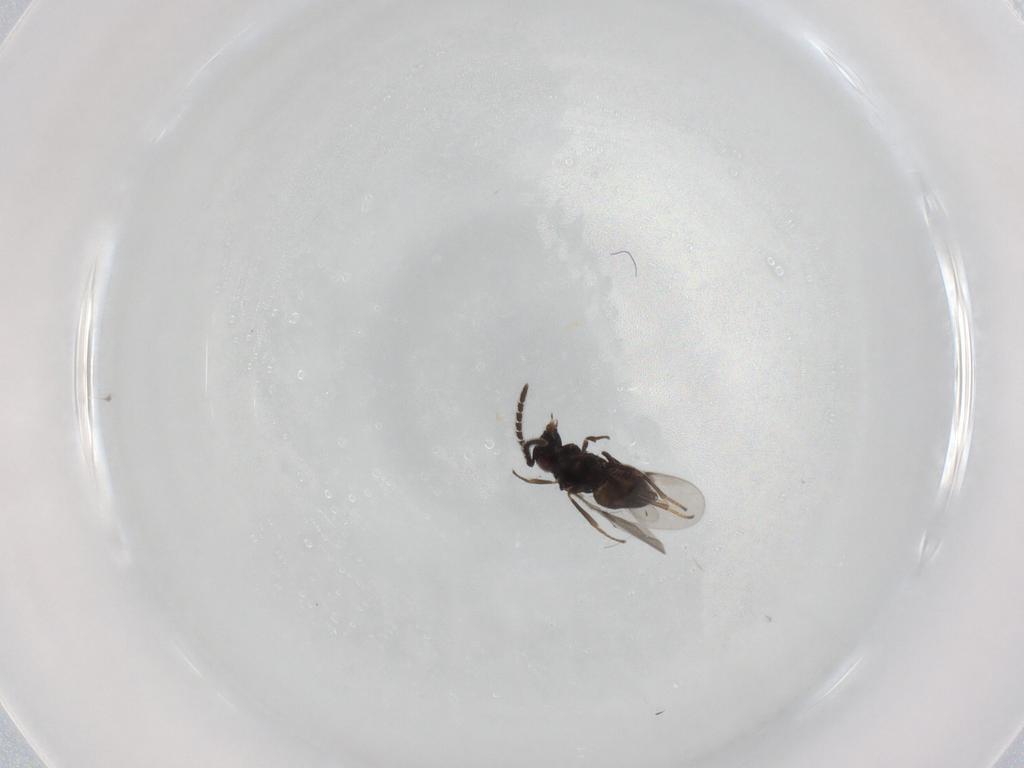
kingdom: Animalia
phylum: Arthropoda
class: Insecta
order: Hymenoptera
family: Encyrtidae
